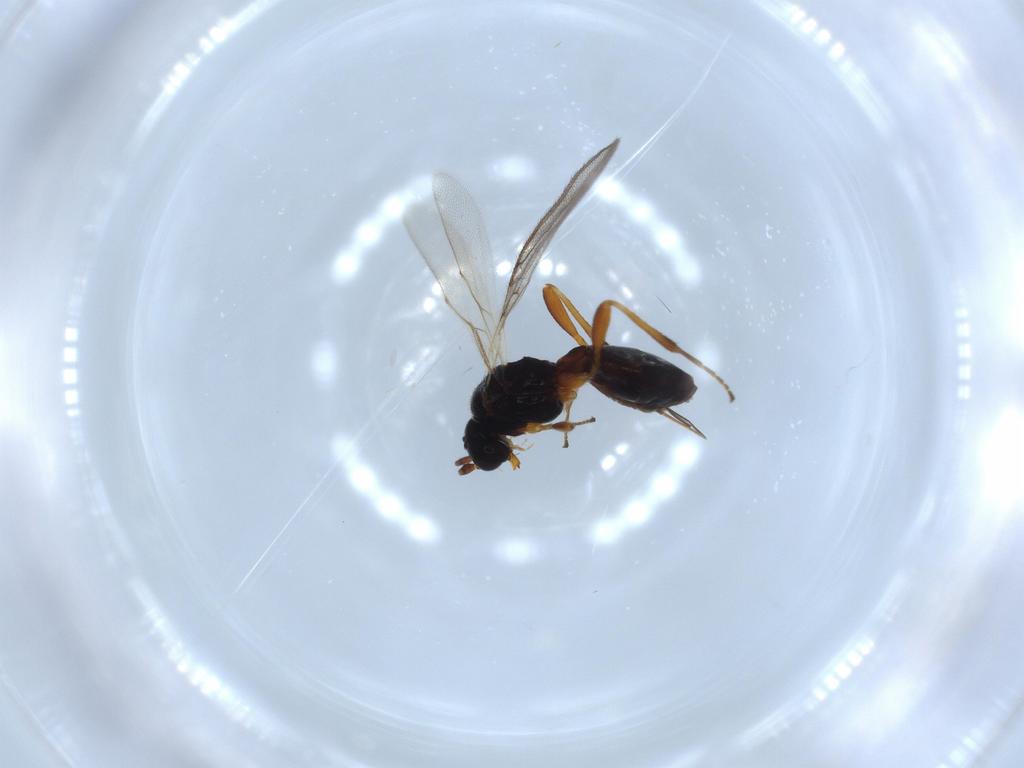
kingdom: Animalia
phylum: Arthropoda
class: Insecta
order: Hymenoptera
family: Braconidae
